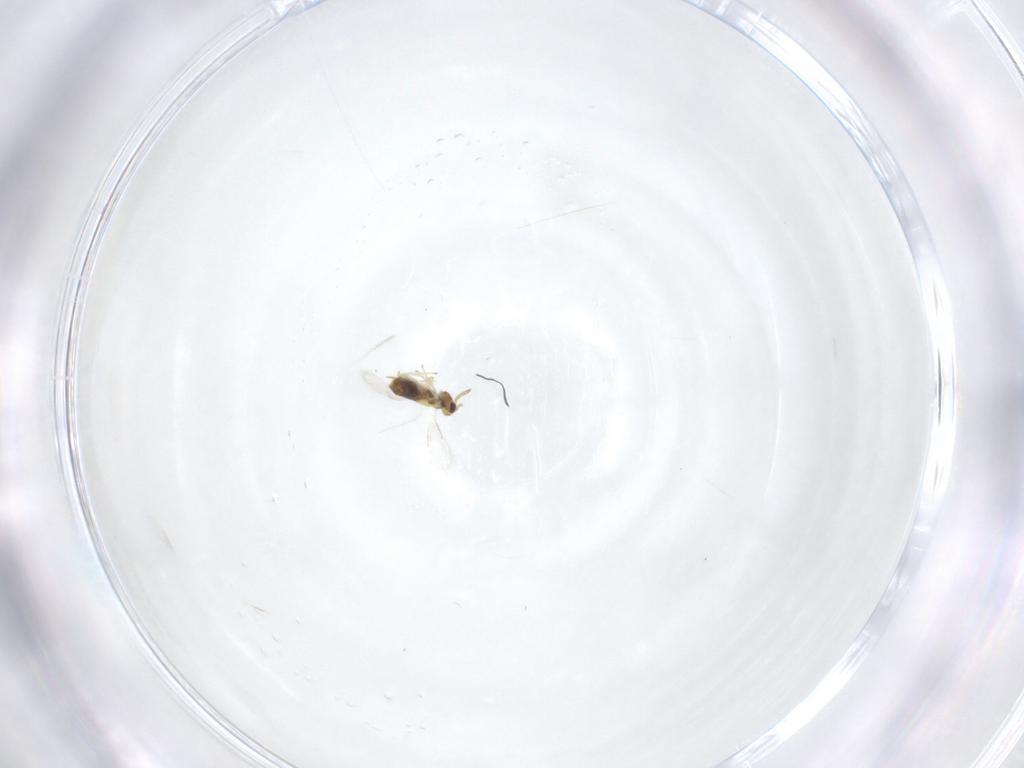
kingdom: Animalia
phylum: Arthropoda
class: Insecta
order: Hymenoptera
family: Aphelinidae
